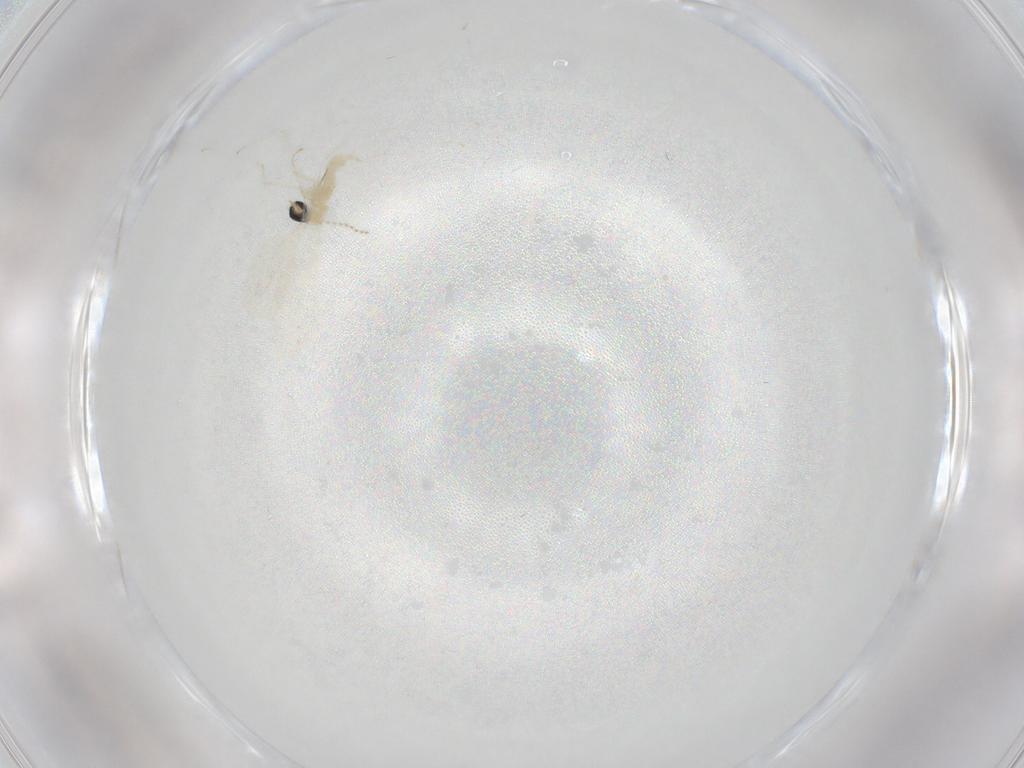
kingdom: Animalia
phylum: Arthropoda
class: Insecta
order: Diptera
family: Cecidomyiidae
